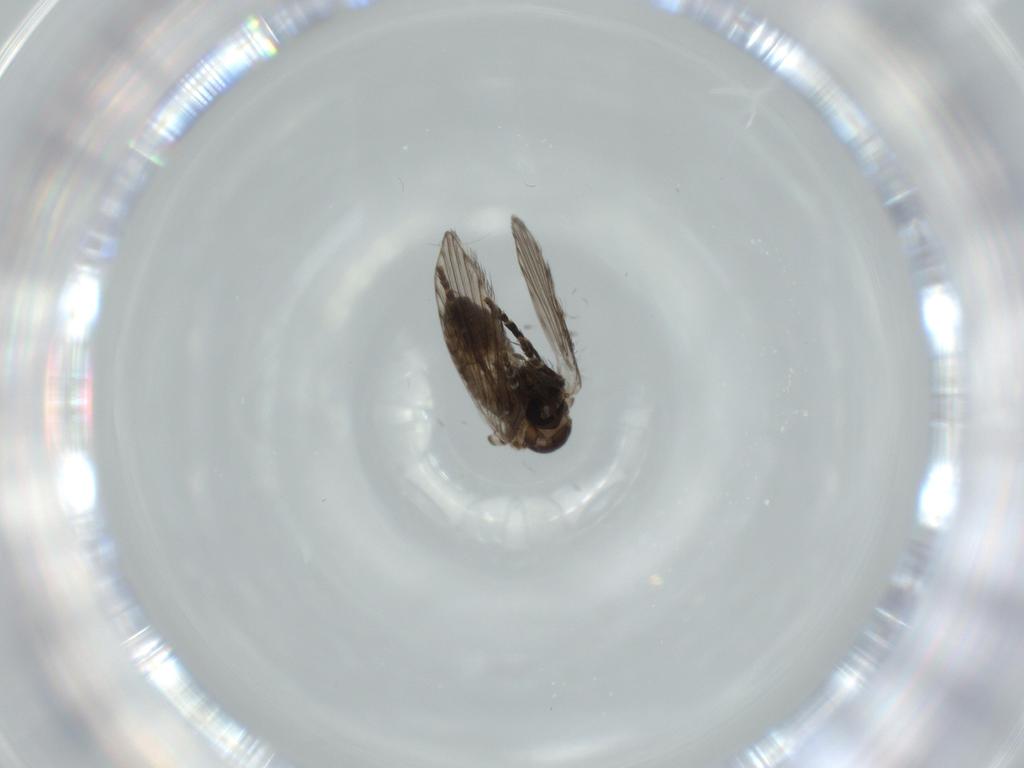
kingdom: Animalia
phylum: Arthropoda
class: Insecta
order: Diptera
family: Psychodidae
